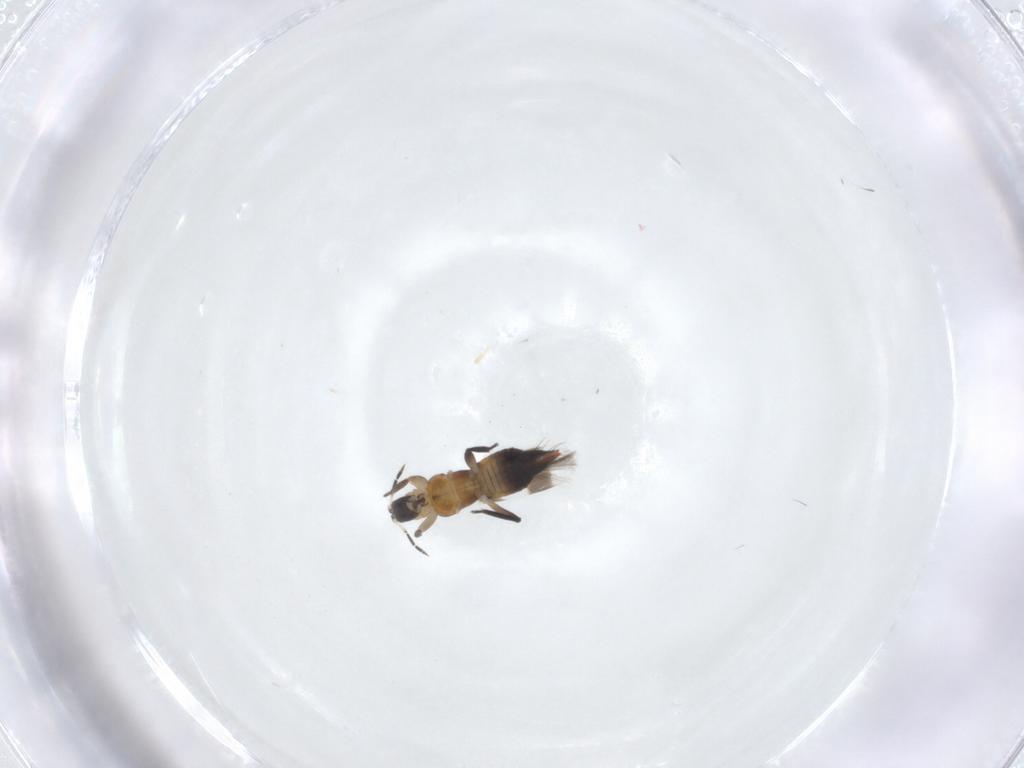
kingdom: Animalia
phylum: Arthropoda
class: Insecta
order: Thysanoptera
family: Aeolothripidae
